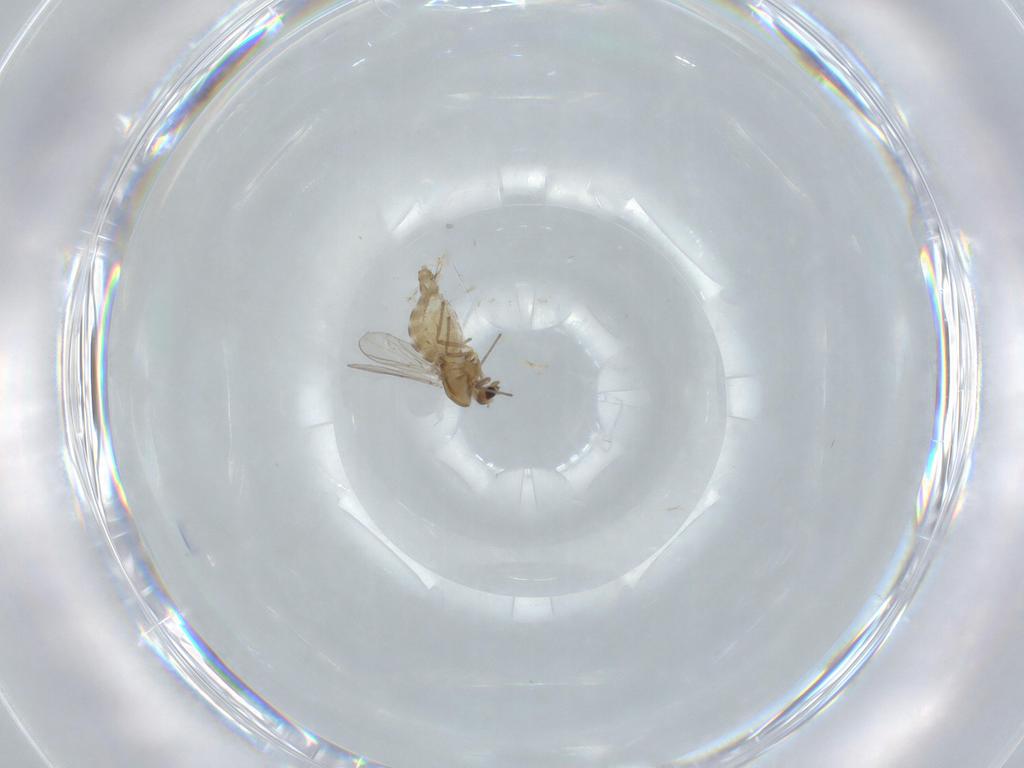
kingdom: Animalia
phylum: Arthropoda
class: Insecta
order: Diptera
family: Chironomidae
